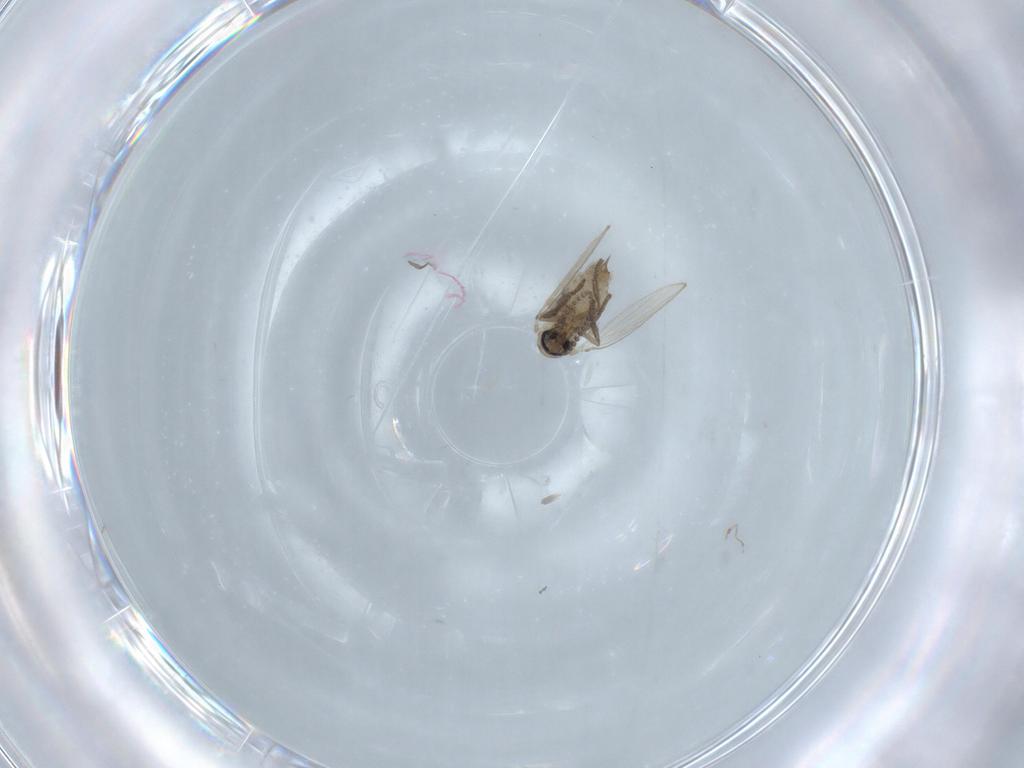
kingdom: Animalia
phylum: Arthropoda
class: Insecta
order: Diptera
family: Psychodidae
